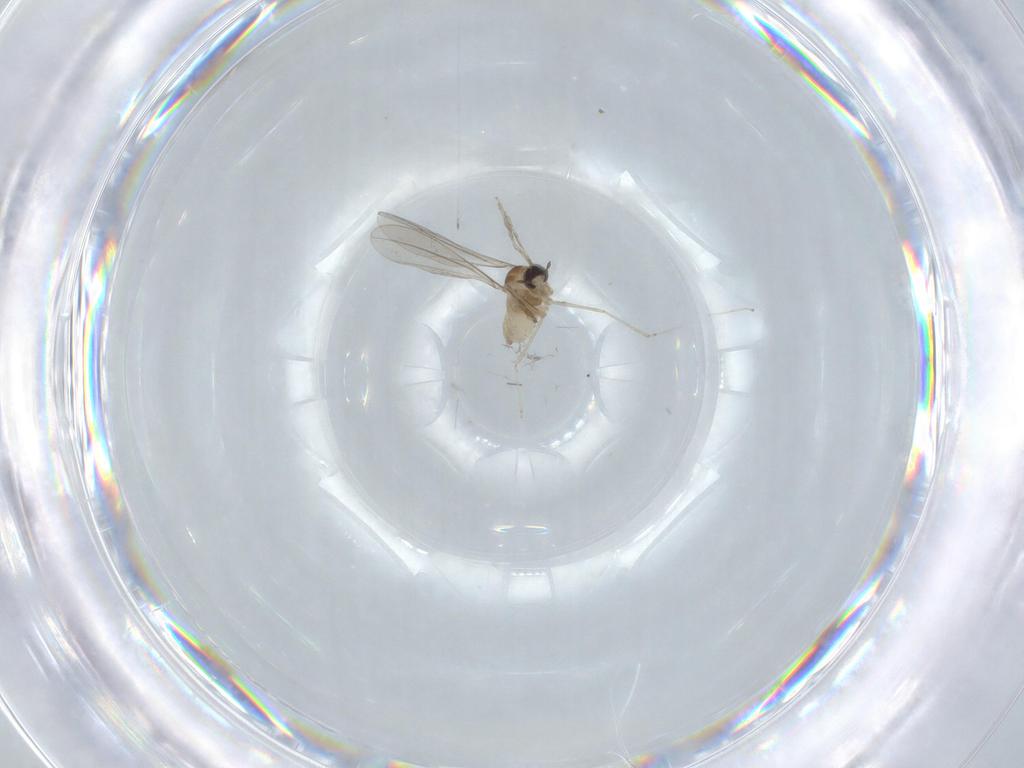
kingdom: Animalia
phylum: Arthropoda
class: Insecta
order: Diptera
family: Cecidomyiidae
